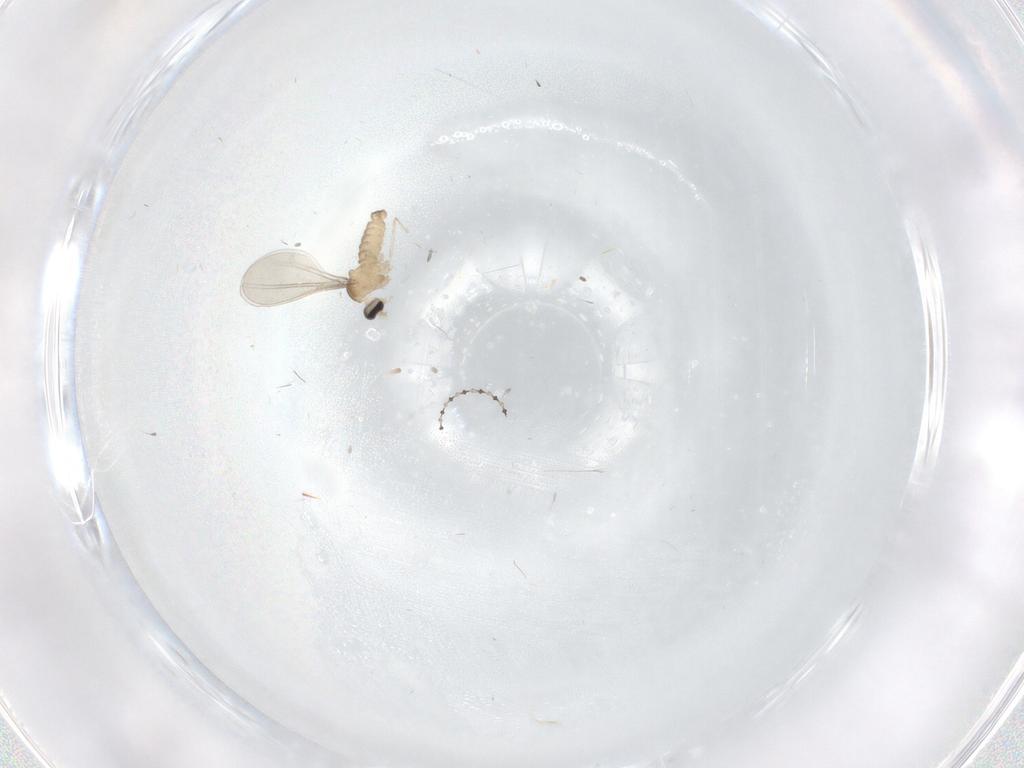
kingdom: Animalia
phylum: Arthropoda
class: Insecta
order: Diptera
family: Cecidomyiidae
